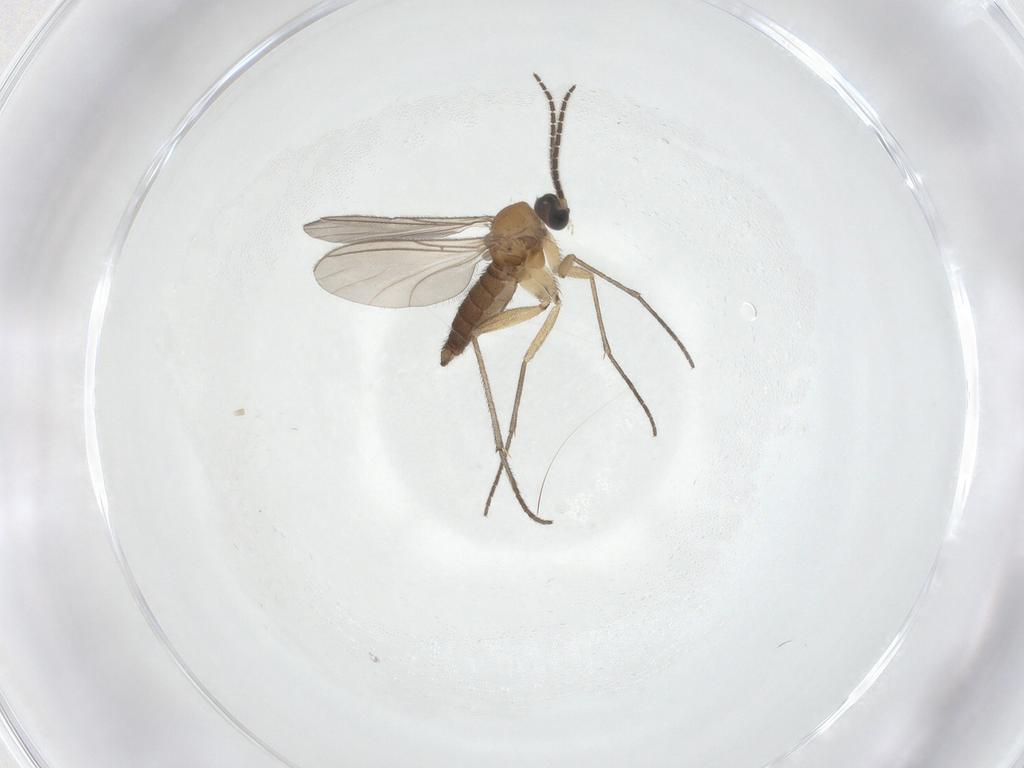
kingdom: Animalia
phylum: Arthropoda
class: Insecta
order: Diptera
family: Sciaridae
